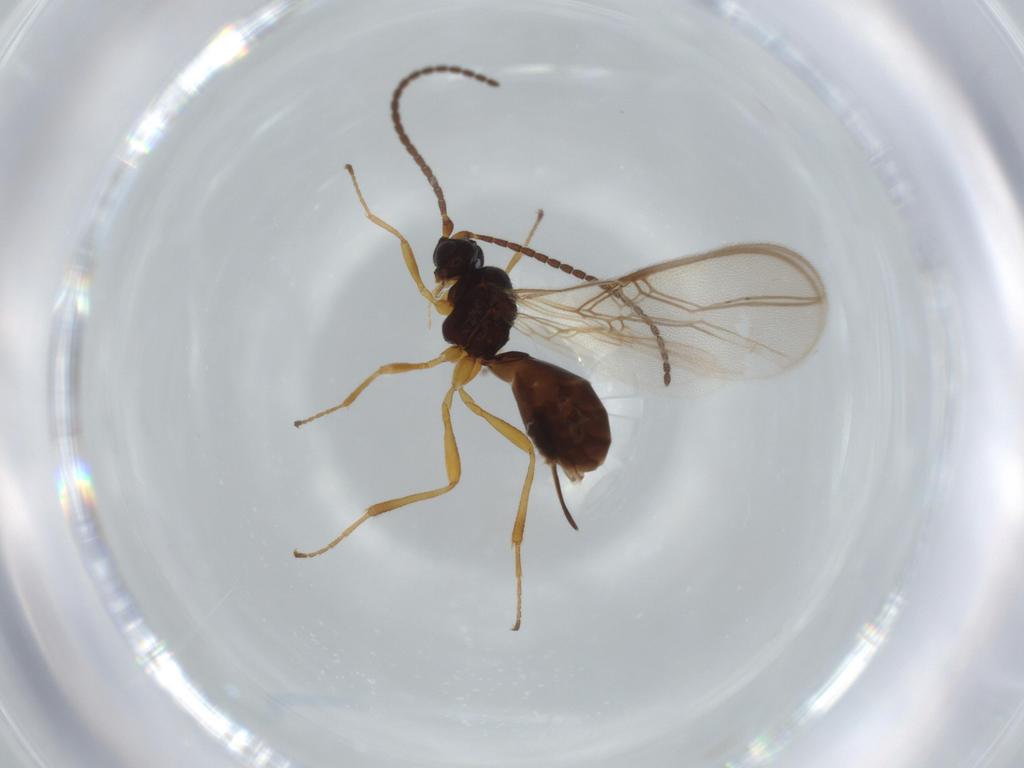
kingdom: Animalia
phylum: Arthropoda
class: Insecta
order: Hymenoptera
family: Braconidae
